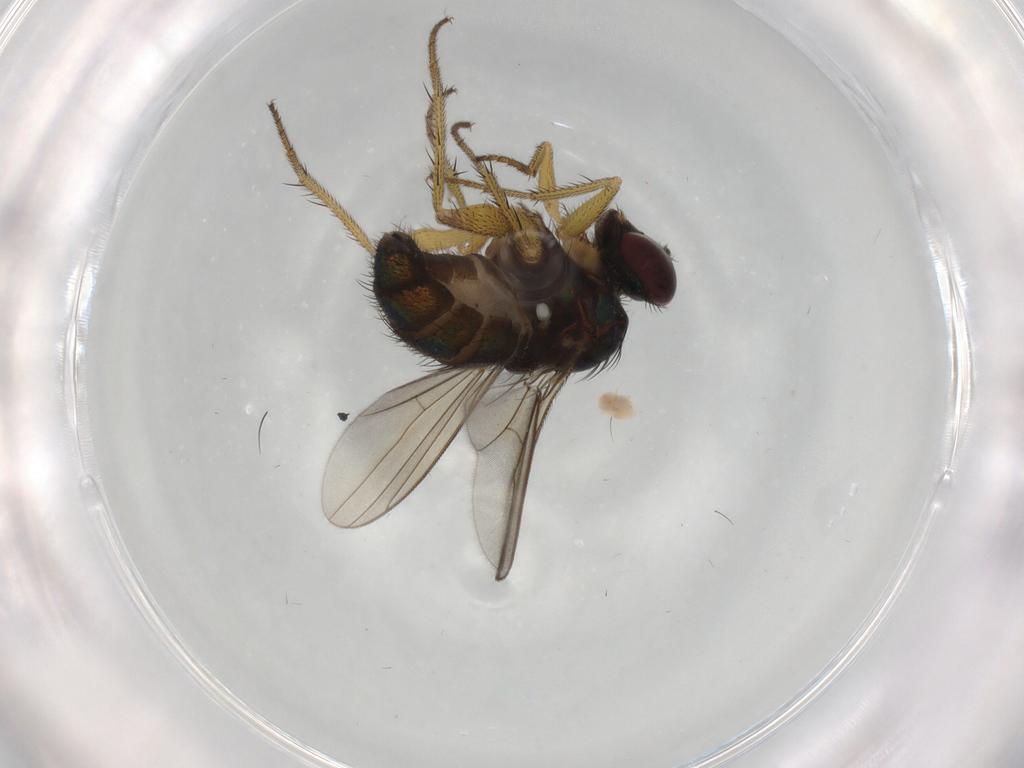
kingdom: Animalia
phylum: Arthropoda
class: Insecta
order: Diptera
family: Dolichopodidae
